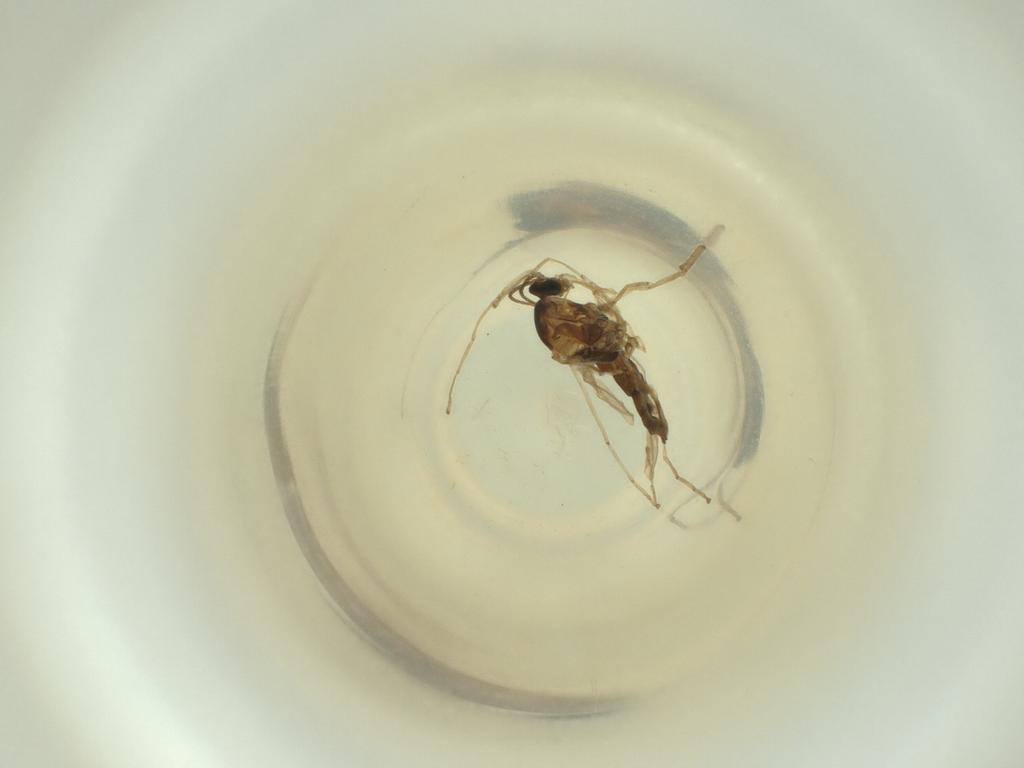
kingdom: Animalia
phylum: Arthropoda
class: Insecta
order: Diptera
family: Cecidomyiidae
